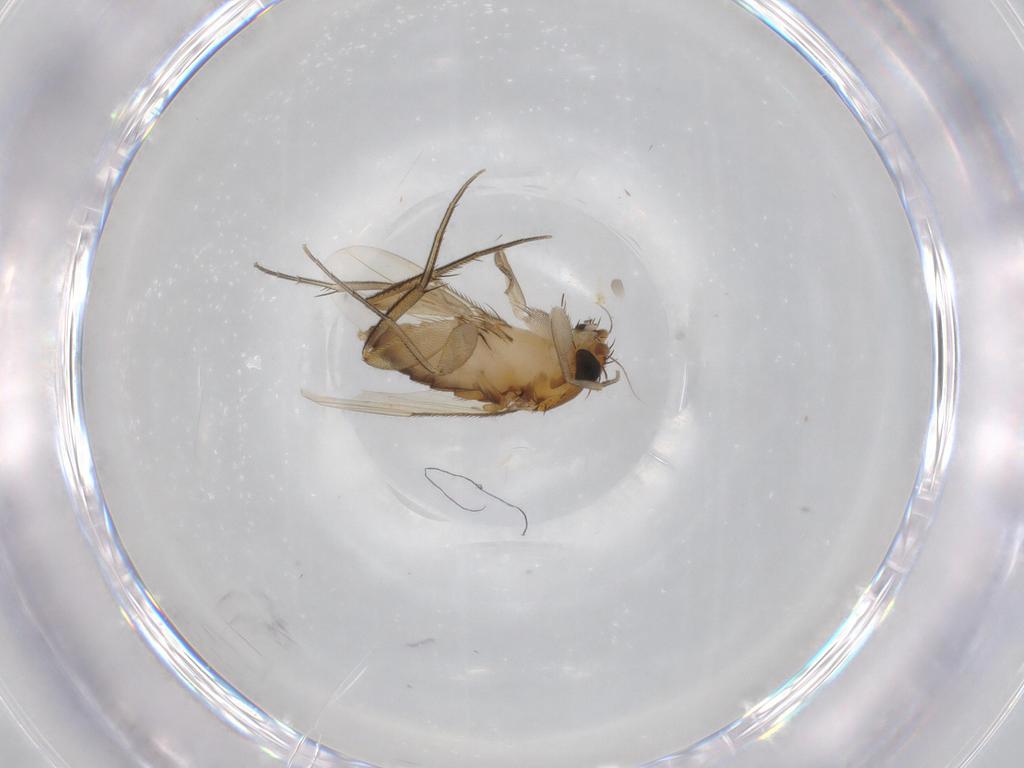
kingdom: Animalia
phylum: Arthropoda
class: Insecta
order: Diptera
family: Phoridae
